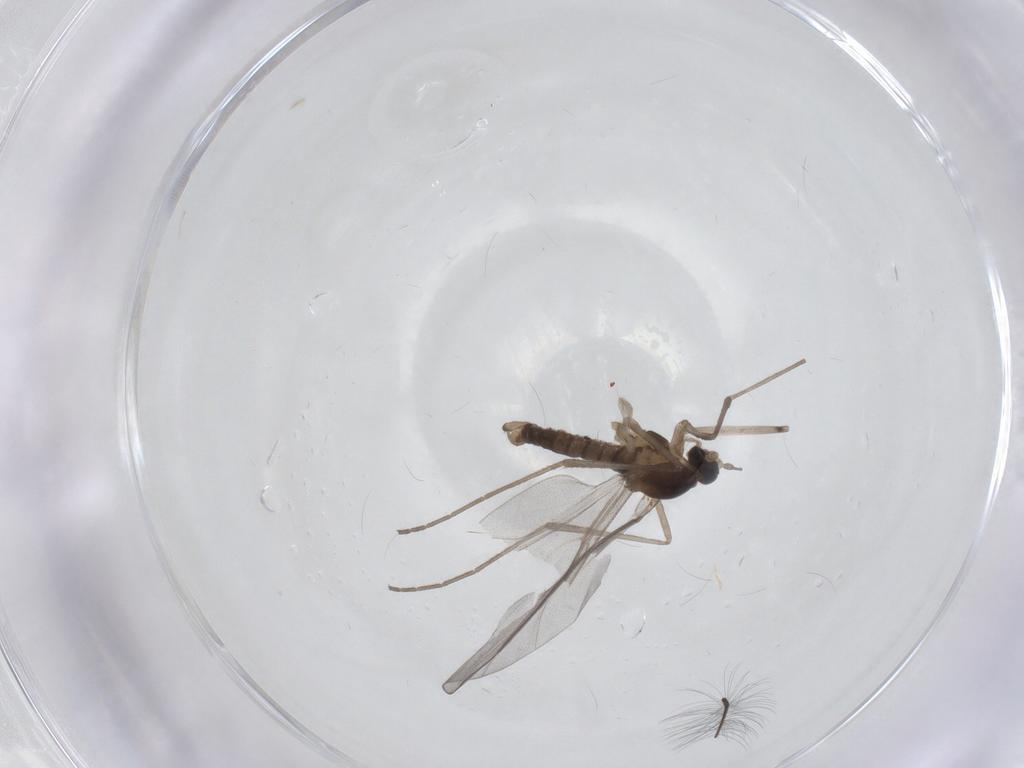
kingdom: Animalia
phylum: Arthropoda
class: Insecta
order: Diptera
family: Cecidomyiidae
